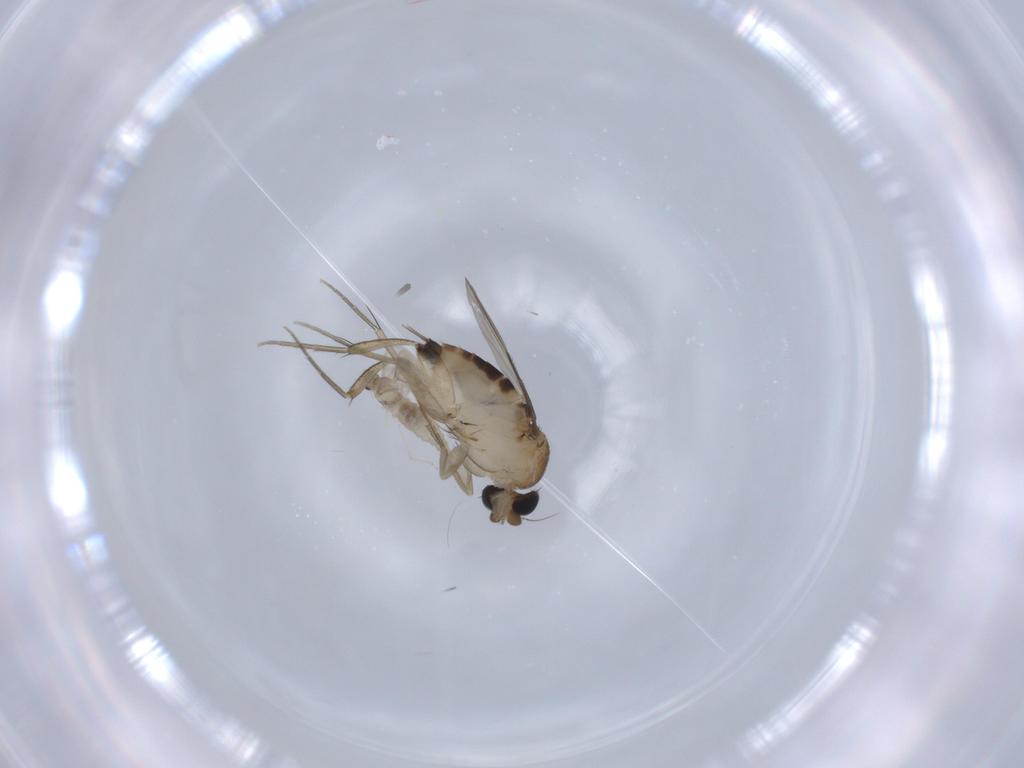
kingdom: Animalia
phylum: Arthropoda
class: Insecta
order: Diptera
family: Phoridae
